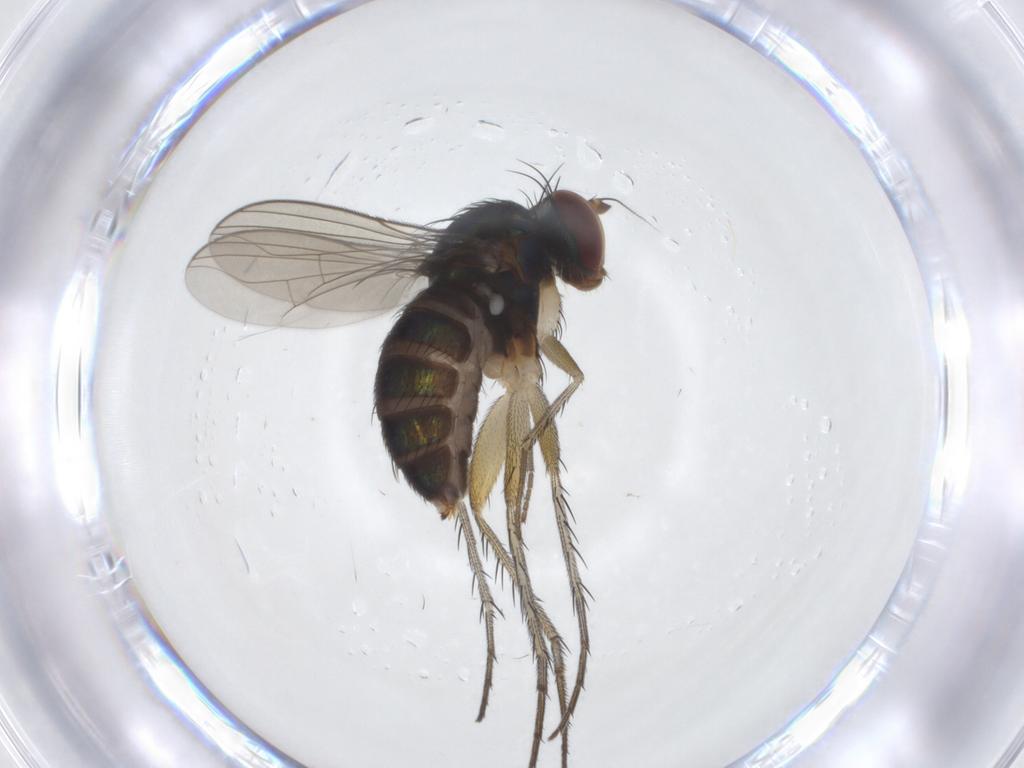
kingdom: Animalia
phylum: Arthropoda
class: Insecta
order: Diptera
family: Dolichopodidae
